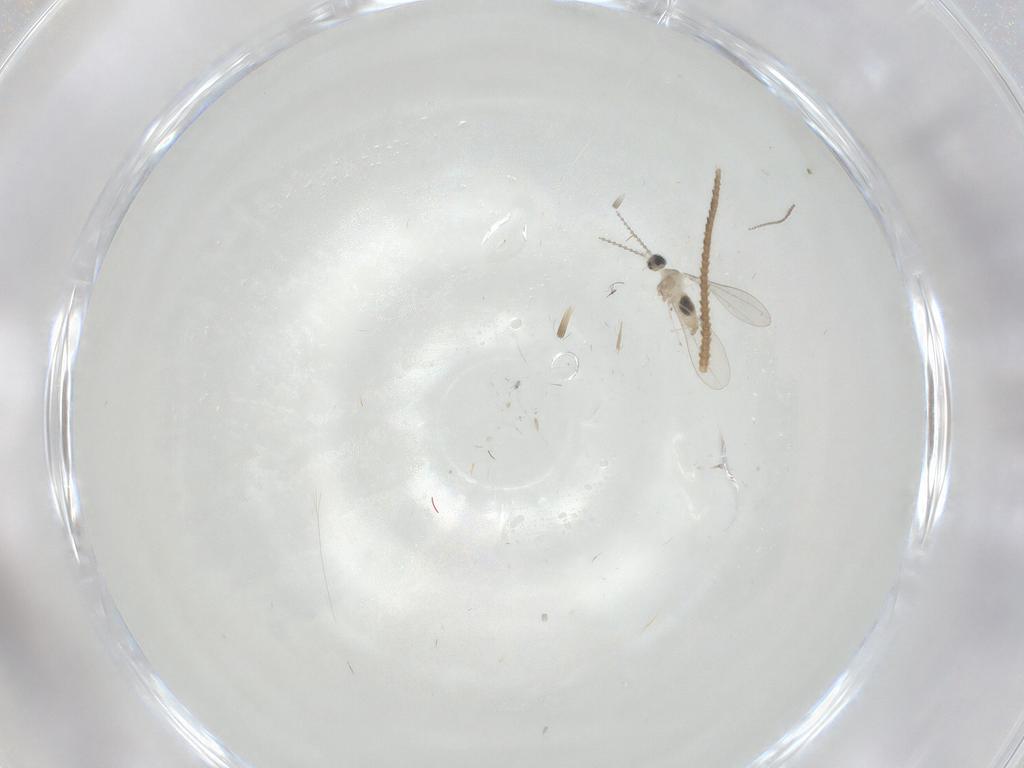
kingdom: Animalia
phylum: Arthropoda
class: Insecta
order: Diptera
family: Cecidomyiidae
